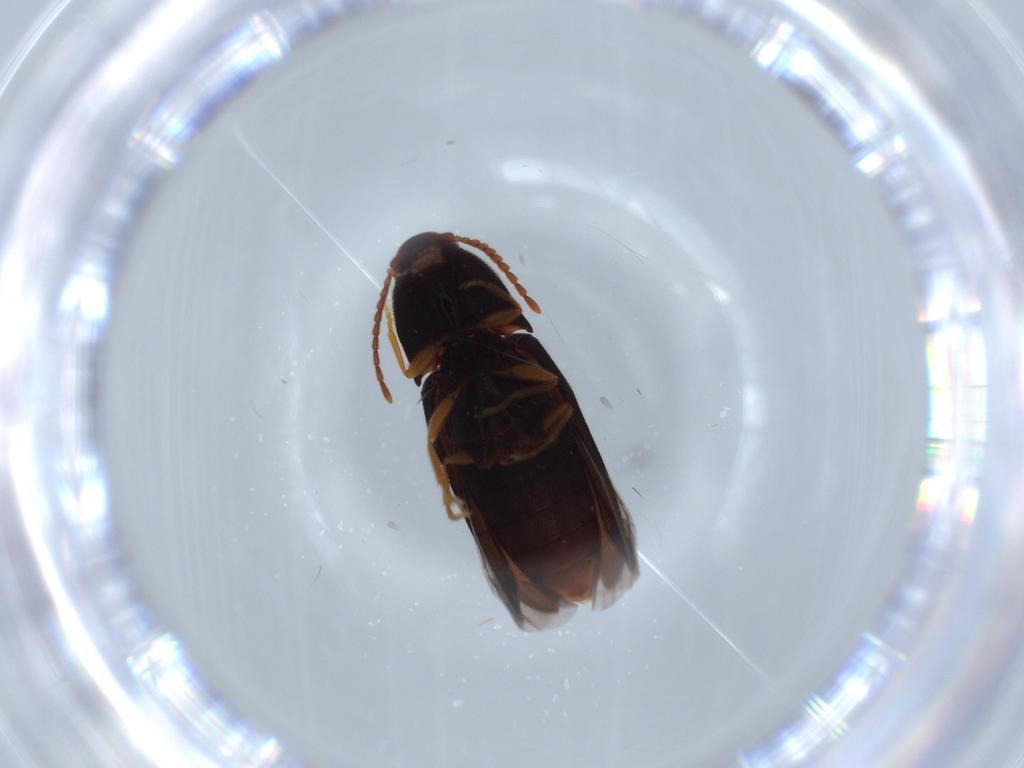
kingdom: Animalia
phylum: Arthropoda
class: Insecta
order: Coleoptera
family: Elateridae
